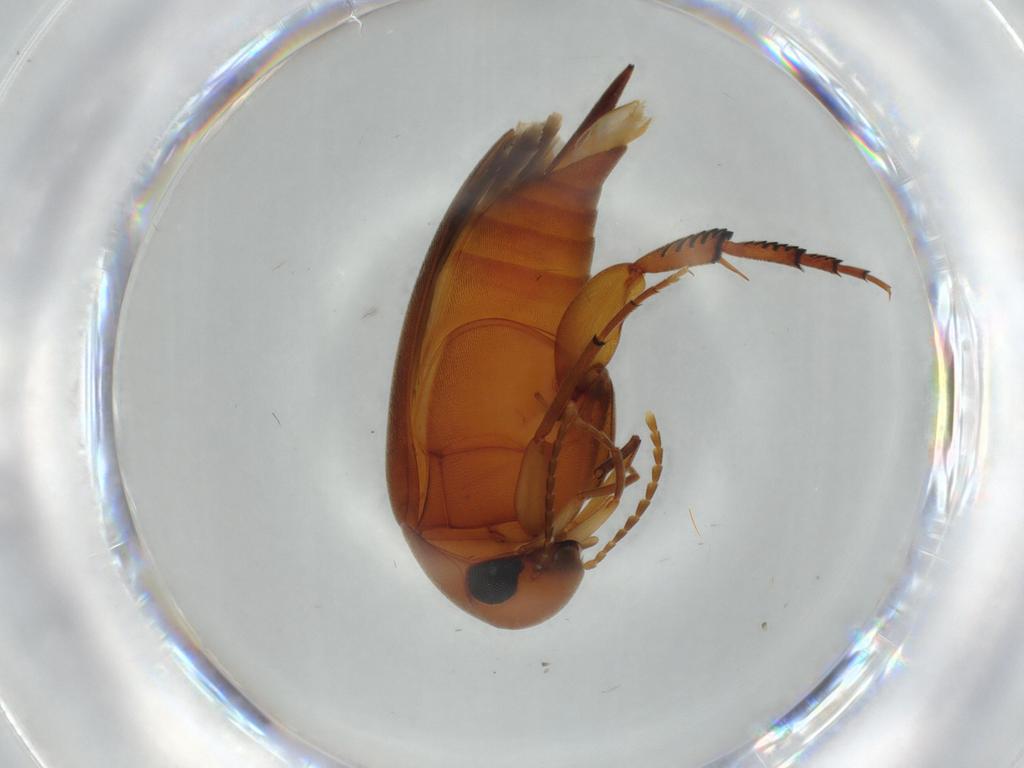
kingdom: Animalia
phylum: Arthropoda
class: Insecta
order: Coleoptera
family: Mordellidae
